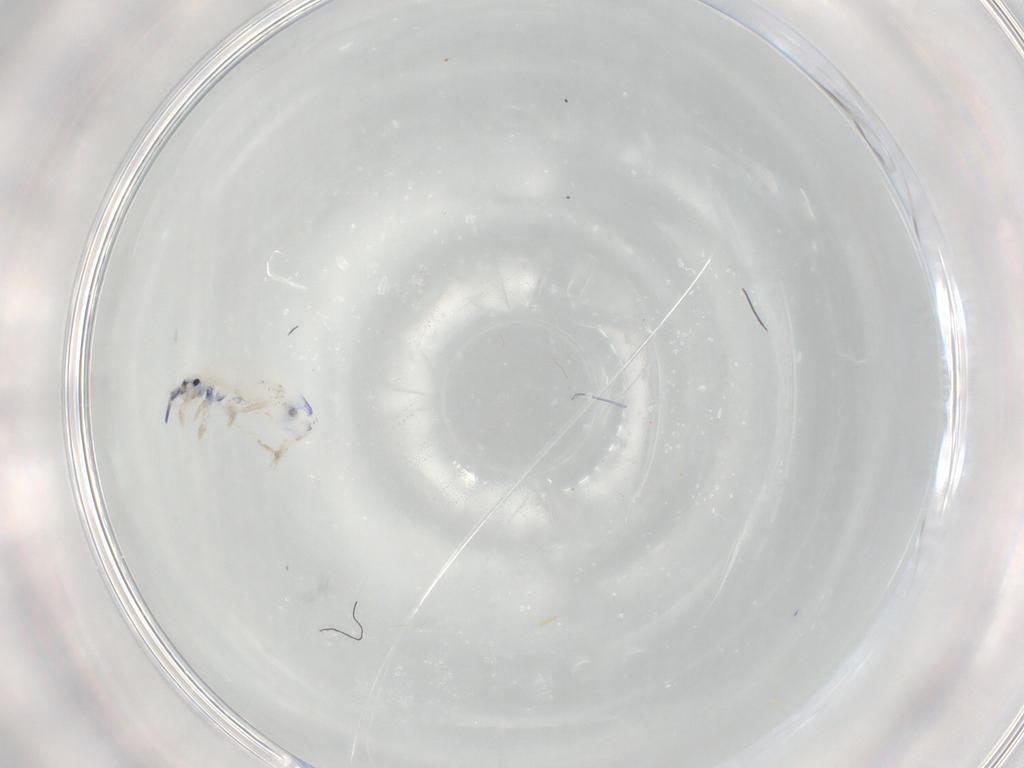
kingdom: Animalia
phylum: Arthropoda
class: Collembola
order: Entomobryomorpha
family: Entomobryidae
